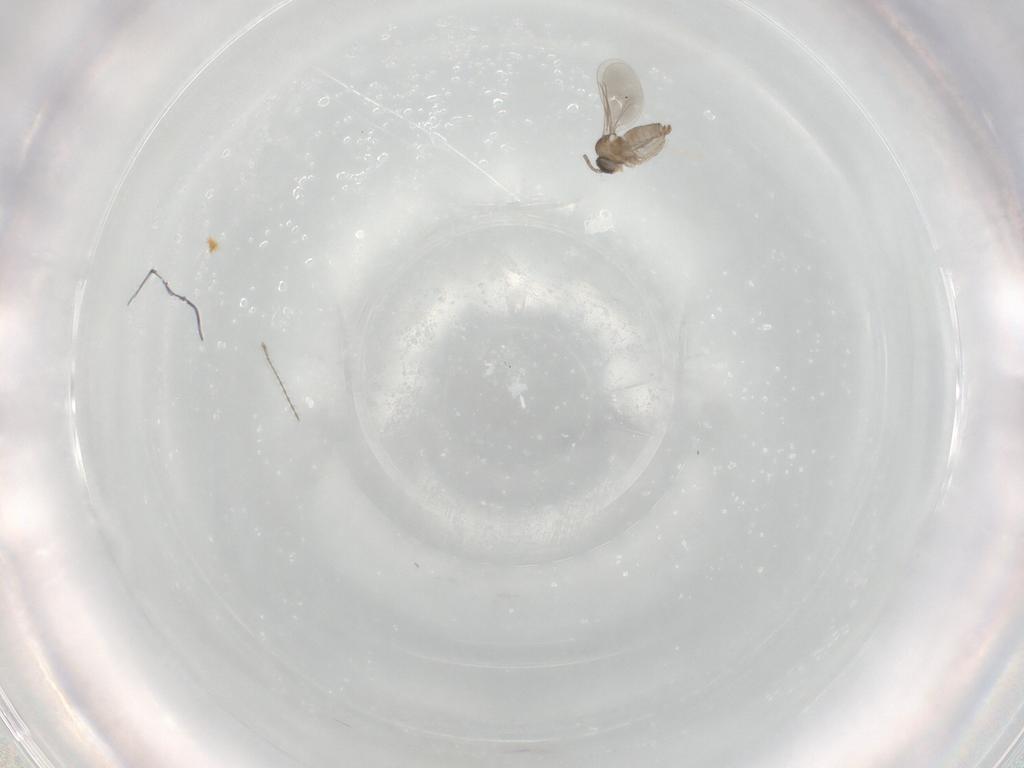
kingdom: Animalia
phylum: Arthropoda
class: Insecta
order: Diptera
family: Cecidomyiidae
